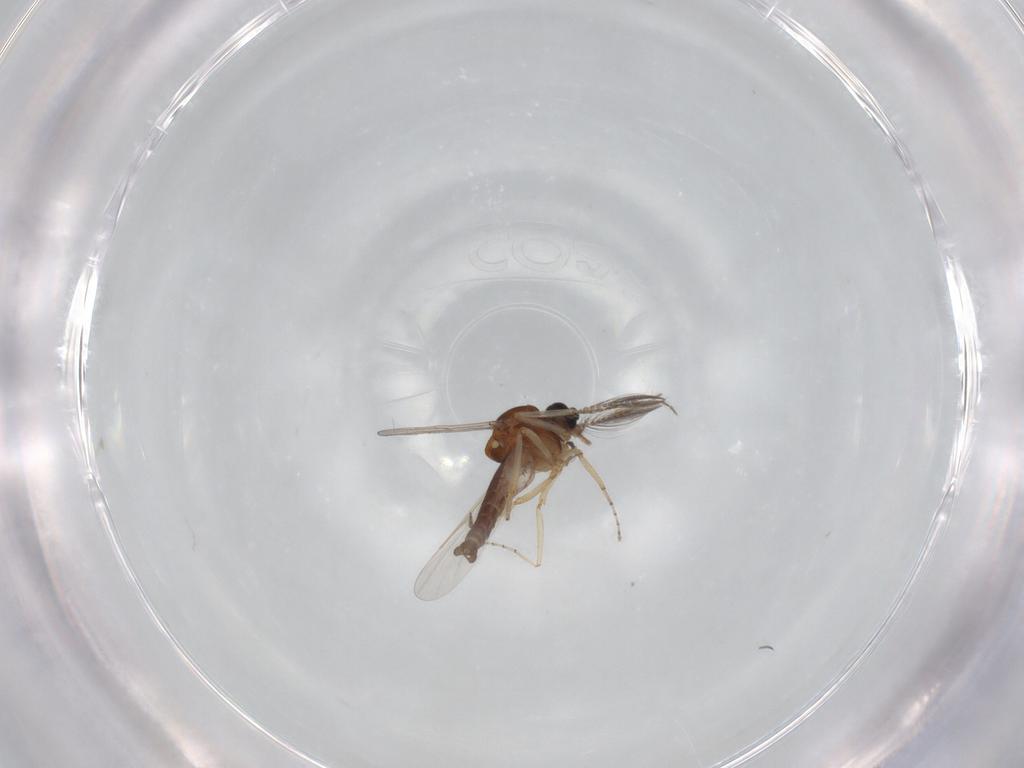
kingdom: Animalia
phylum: Arthropoda
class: Insecta
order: Diptera
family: Ceratopogonidae
